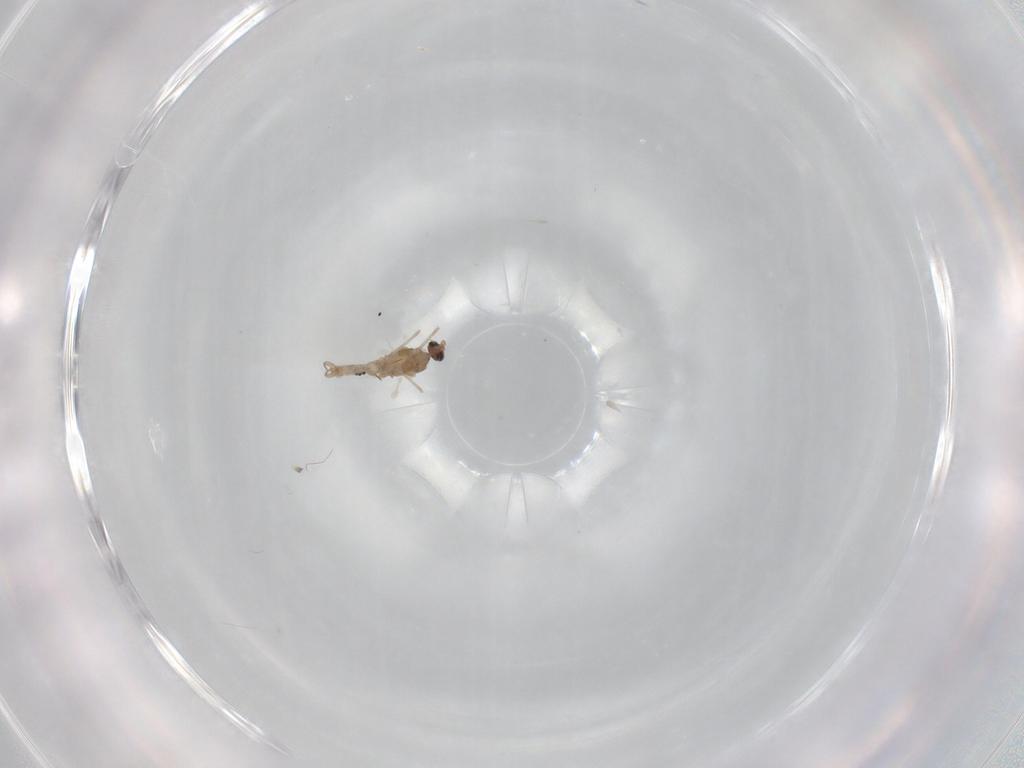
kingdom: Animalia
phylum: Arthropoda
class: Insecta
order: Diptera
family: Cecidomyiidae
